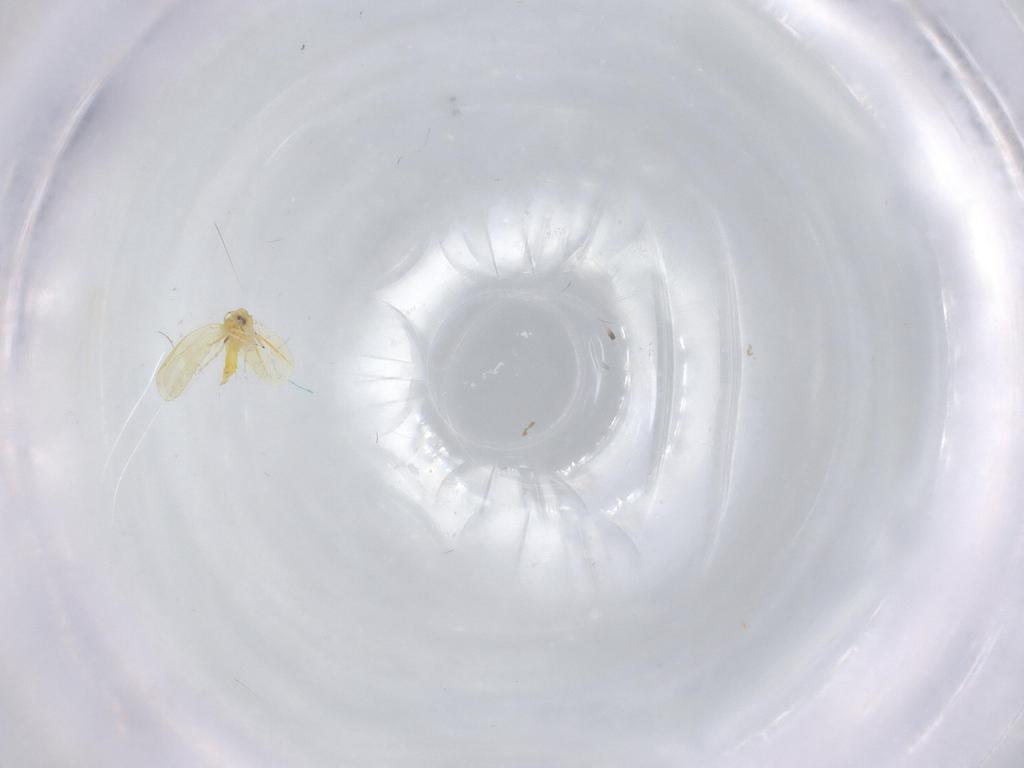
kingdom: Animalia
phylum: Arthropoda
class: Insecta
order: Hemiptera
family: Aleyrodidae
